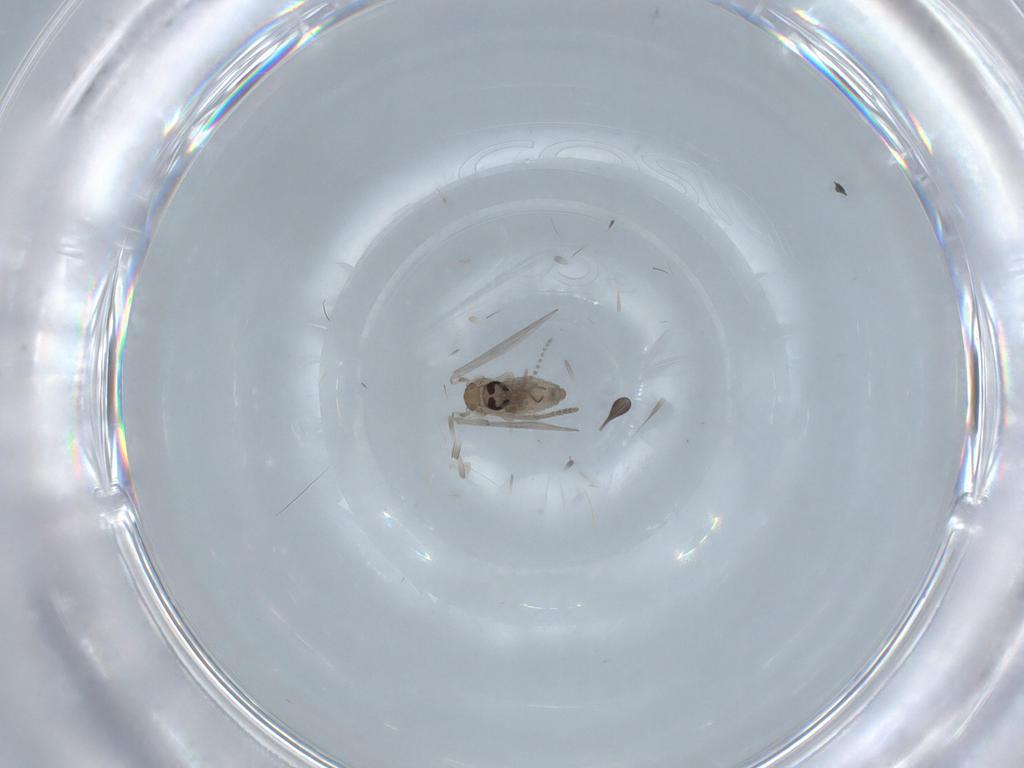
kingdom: Animalia
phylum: Arthropoda
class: Insecta
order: Diptera
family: Psychodidae
